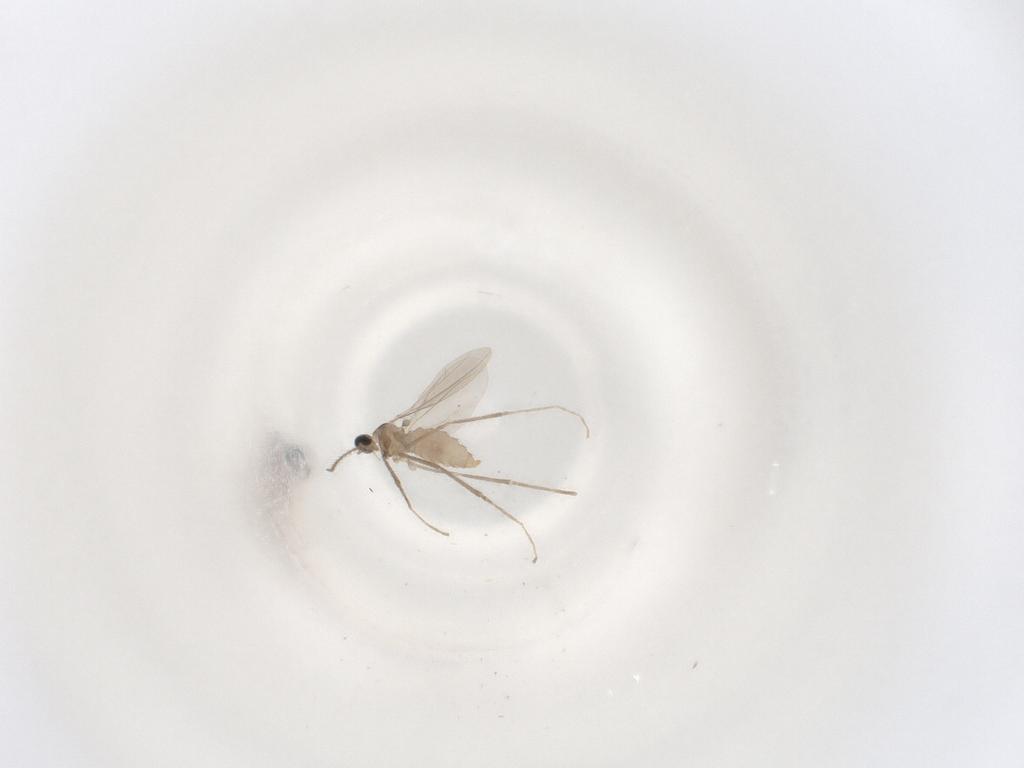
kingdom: Animalia
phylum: Arthropoda
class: Insecta
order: Diptera
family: Cecidomyiidae
